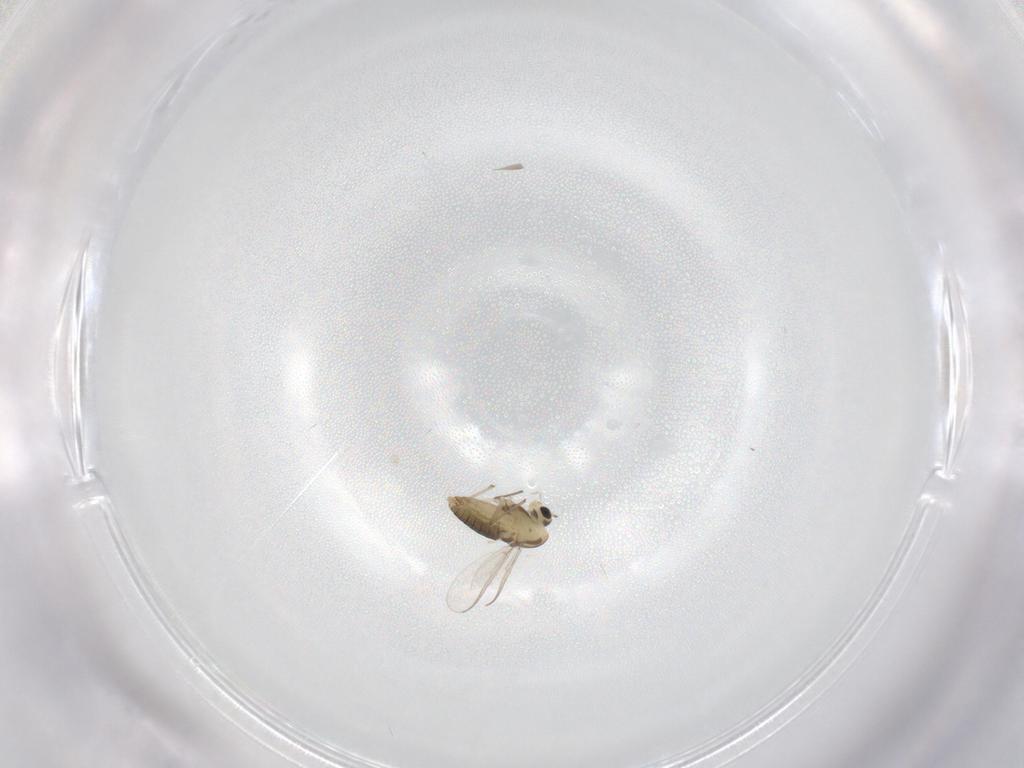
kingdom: Animalia
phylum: Arthropoda
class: Insecta
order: Diptera
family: Chironomidae
